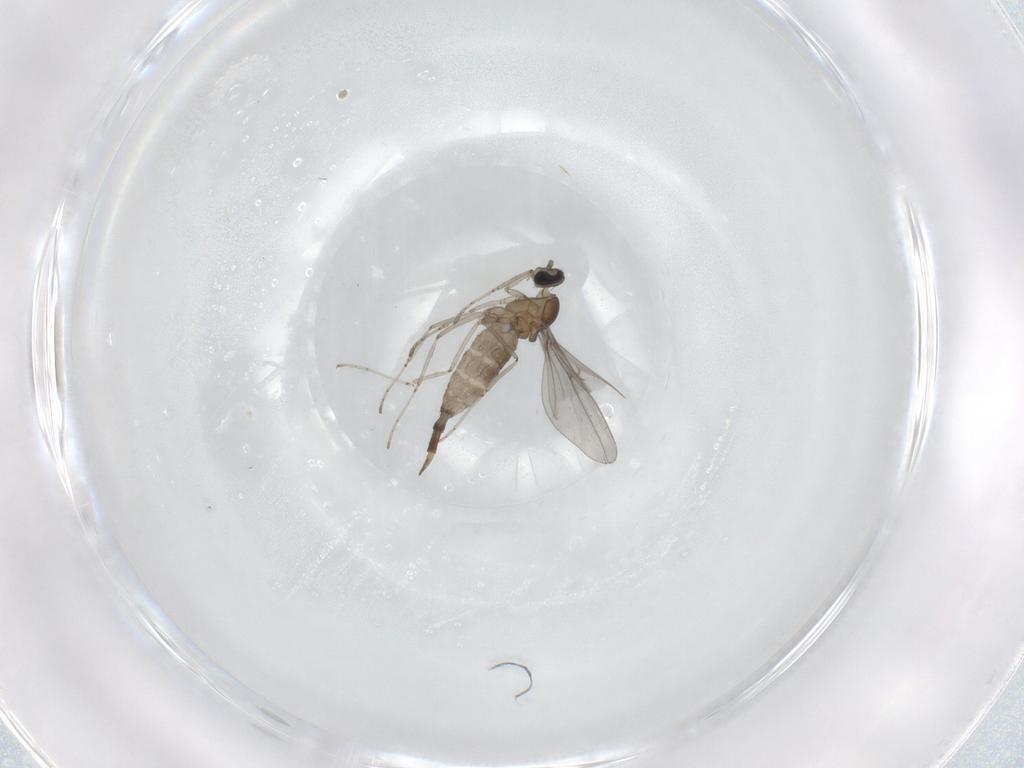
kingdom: Animalia
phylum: Arthropoda
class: Insecta
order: Diptera
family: Cecidomyiidae
